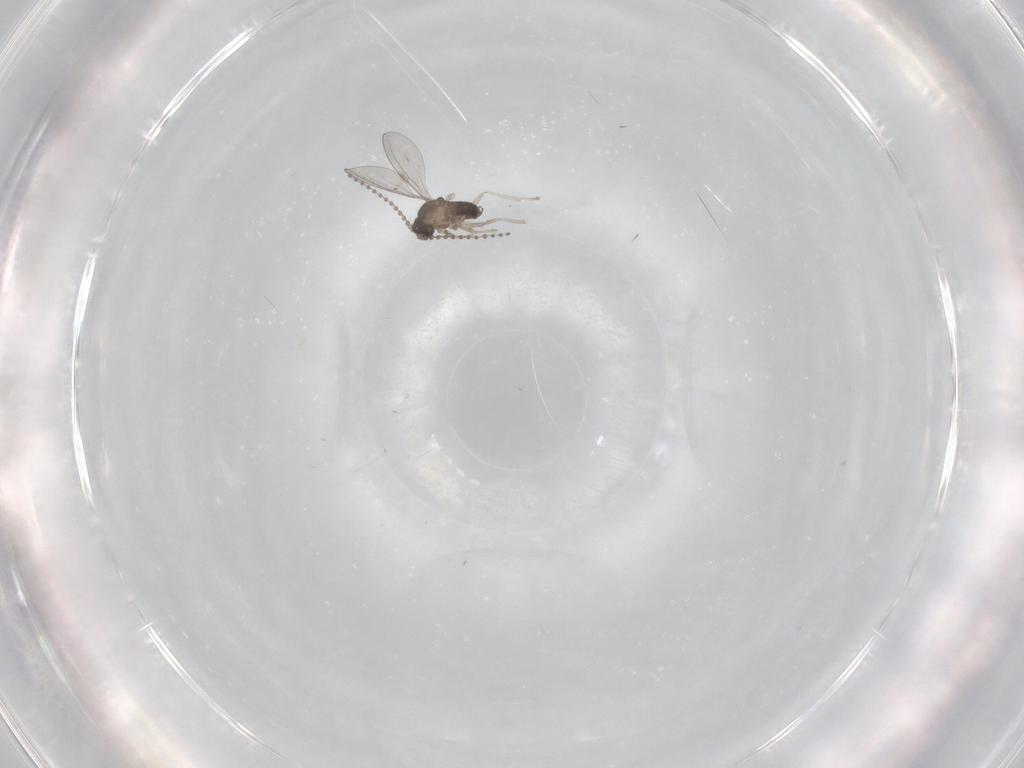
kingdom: Animalia
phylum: Arthropoda
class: Insecta
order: Diptera
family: Cecidomyiidae
